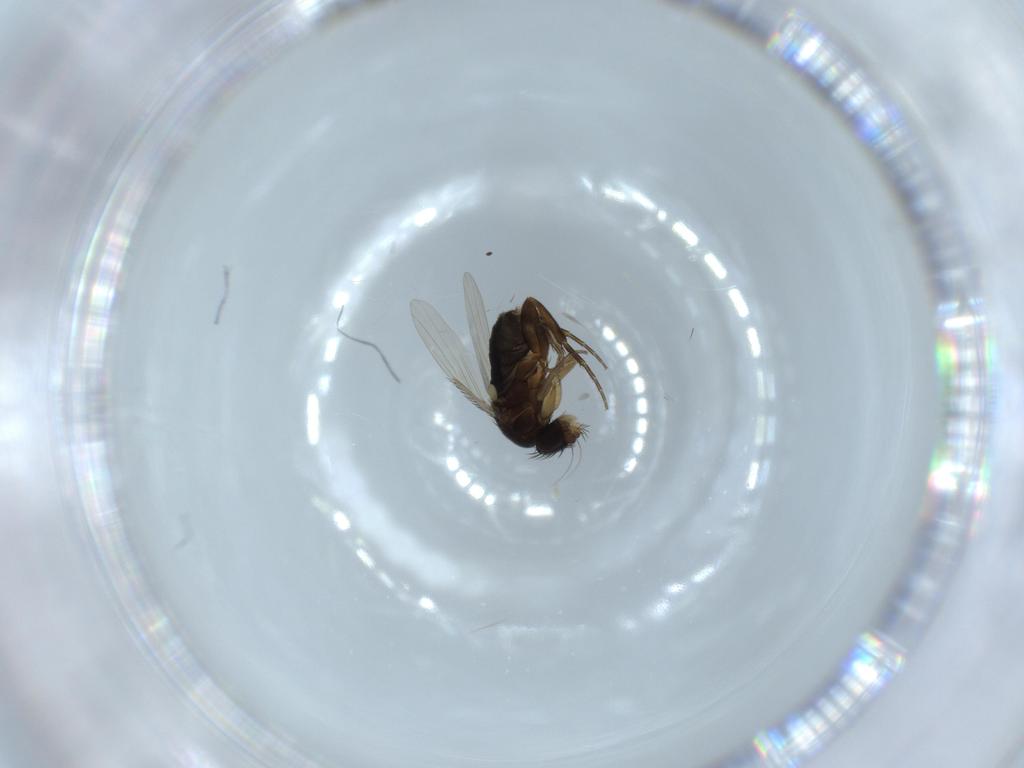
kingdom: Animalia
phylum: Arthropoda
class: Insecta
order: Diptera
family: Phoridae
